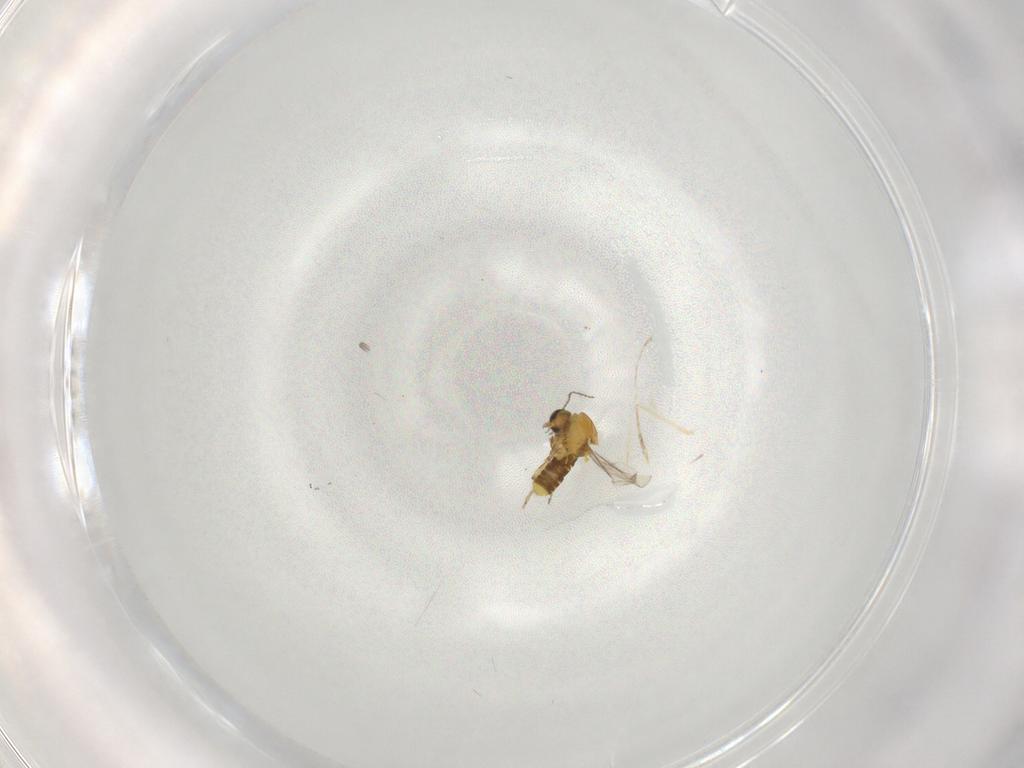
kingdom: Animalia
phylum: Arthropoda
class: Insecta
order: Diptera
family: Ceratopogonidae
